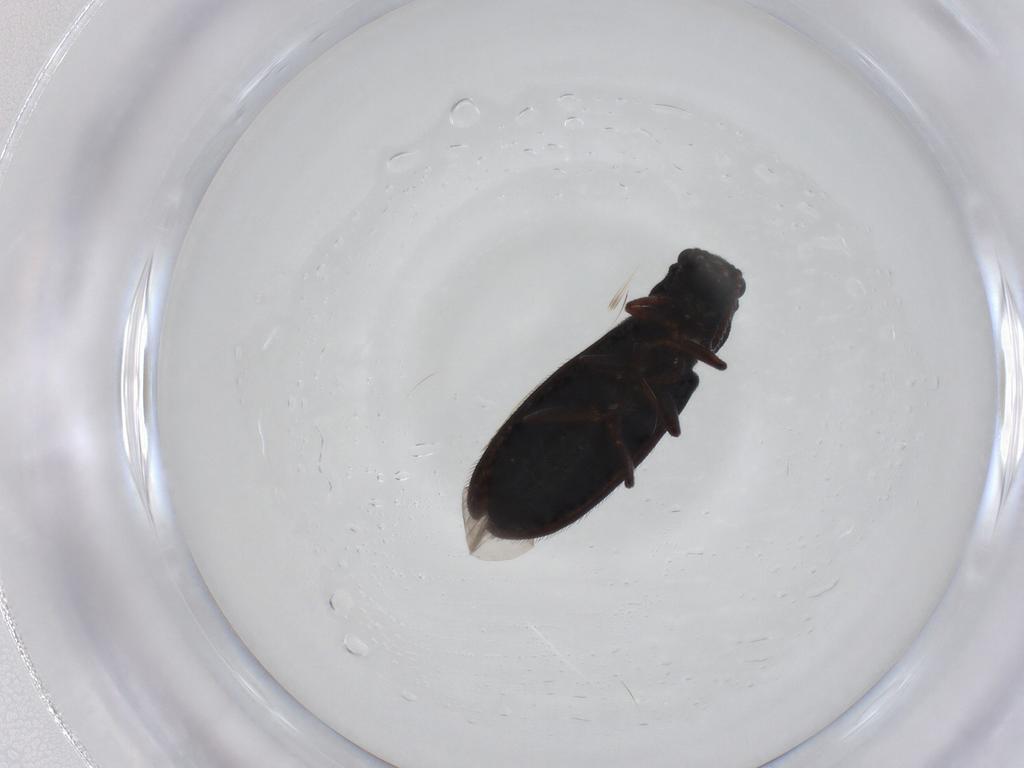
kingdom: Animalia
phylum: Arthropoda
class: Insecta
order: Coleoptera
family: Melyridae
